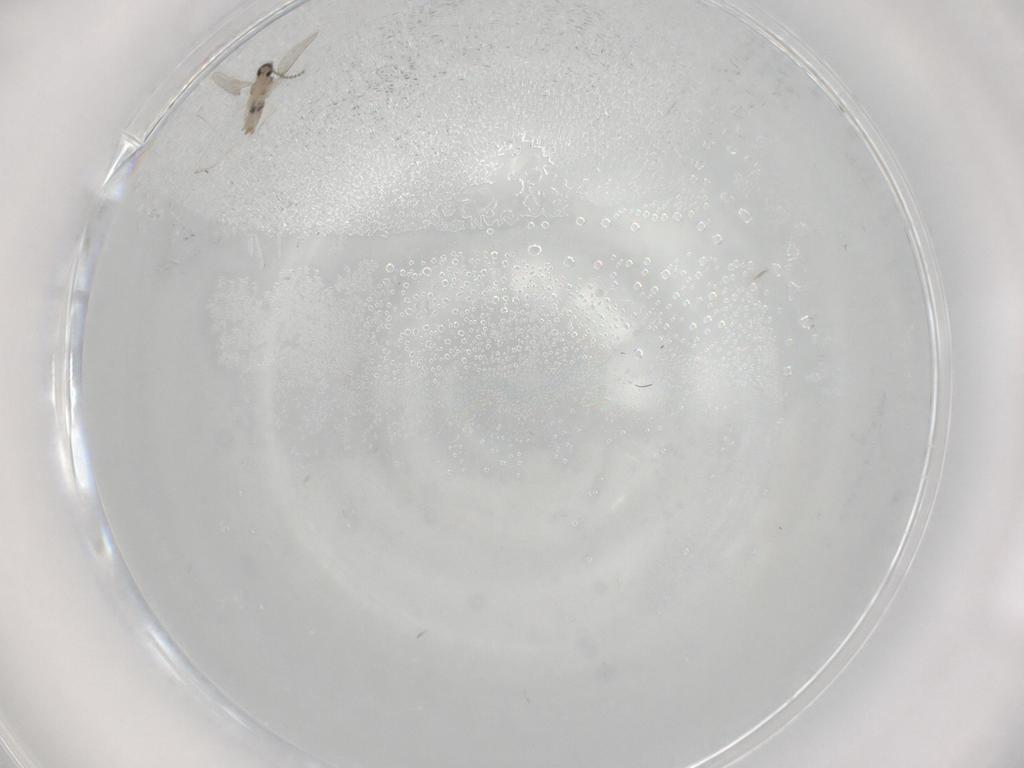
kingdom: Animalia
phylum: Arthropoda
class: Insecta
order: Diptera
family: Cecidomyiidae
